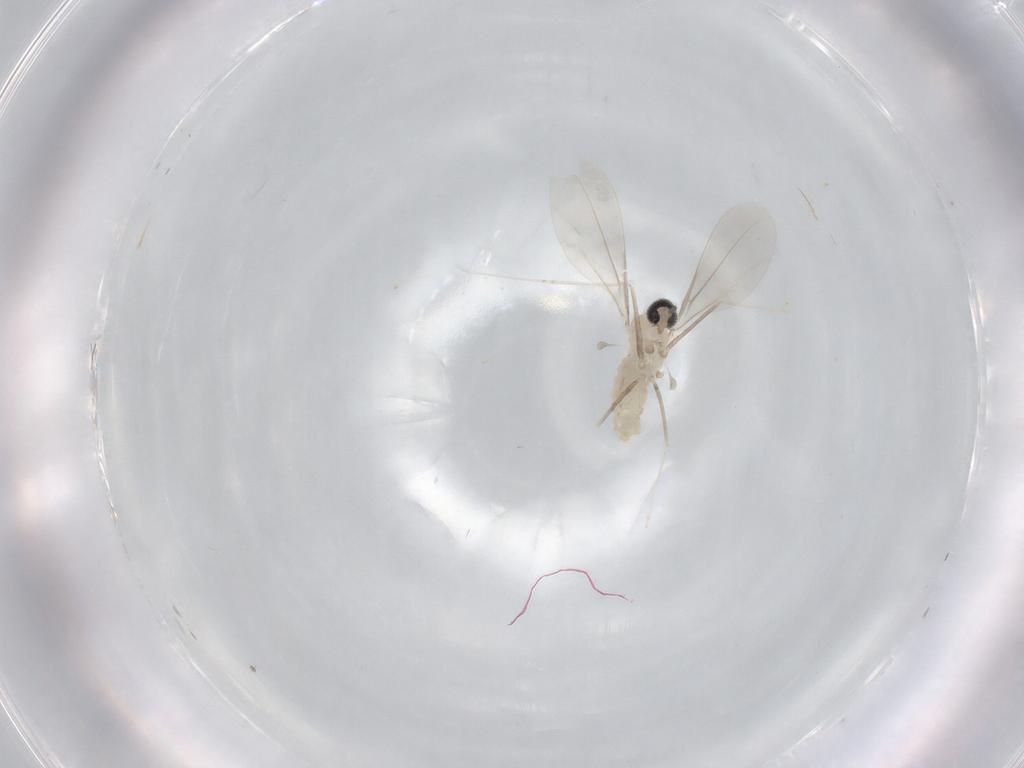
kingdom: Animalia
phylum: Arthropoda
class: Insecta
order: Diptera
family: Cecidomyiidae
